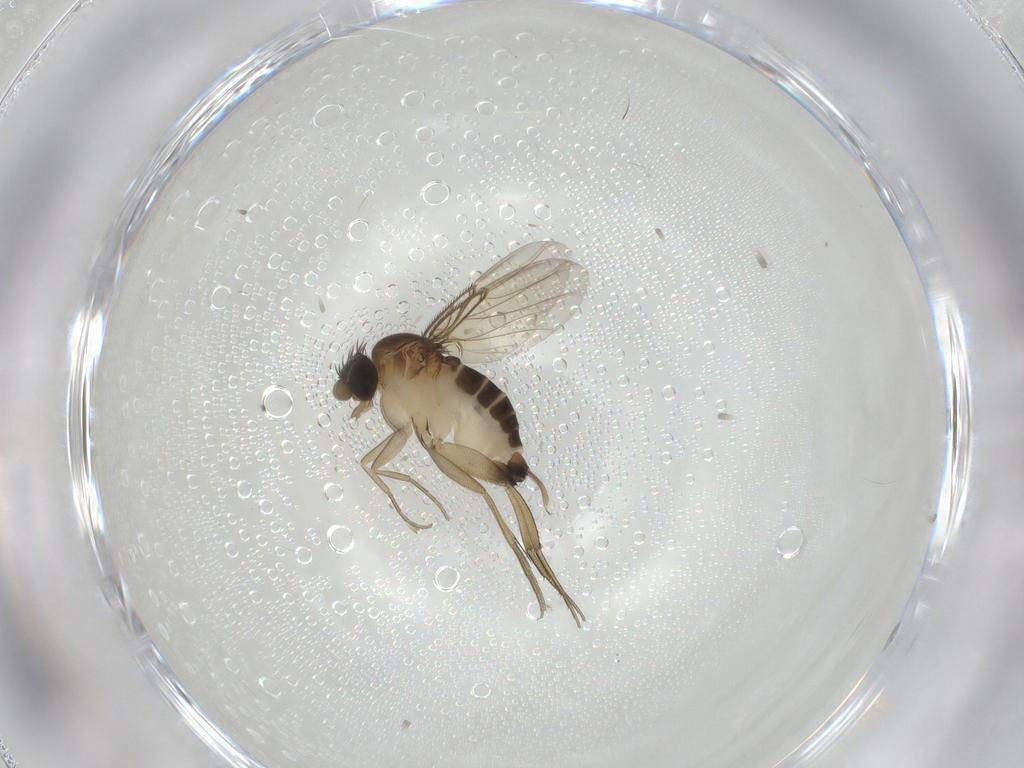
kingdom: Animalia
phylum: Arthropoda
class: Insecta
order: Diptera
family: Phoridae
